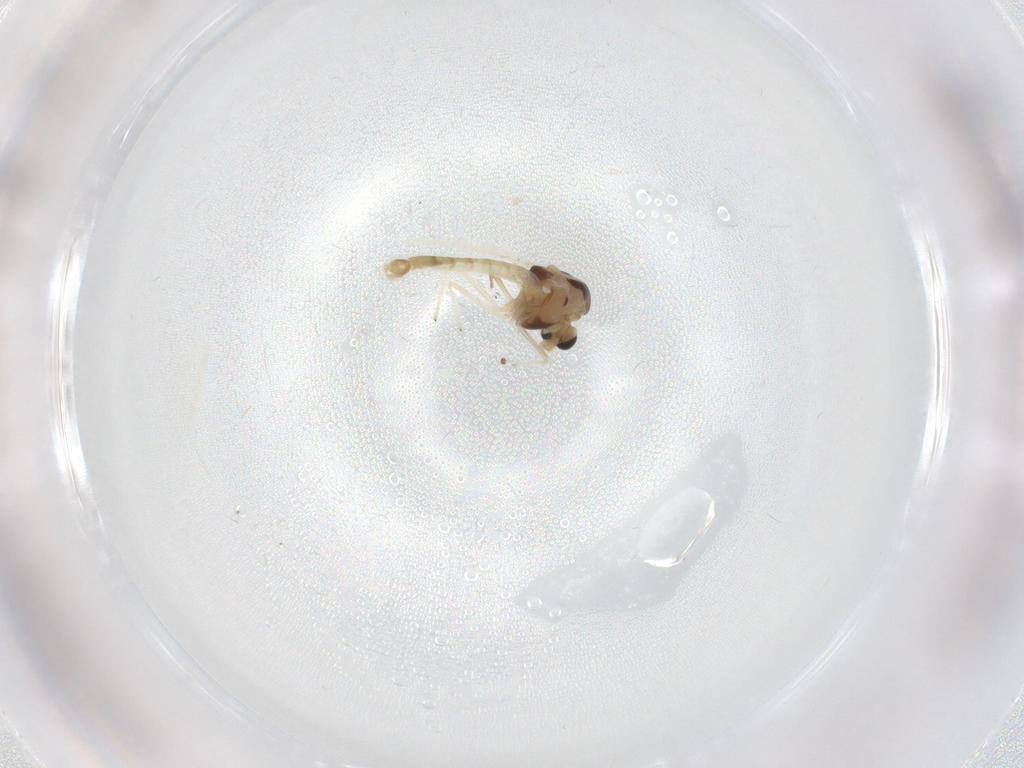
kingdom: Animalia
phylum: Arthropoda
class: Insecta
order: Diptera
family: Chironomidae
